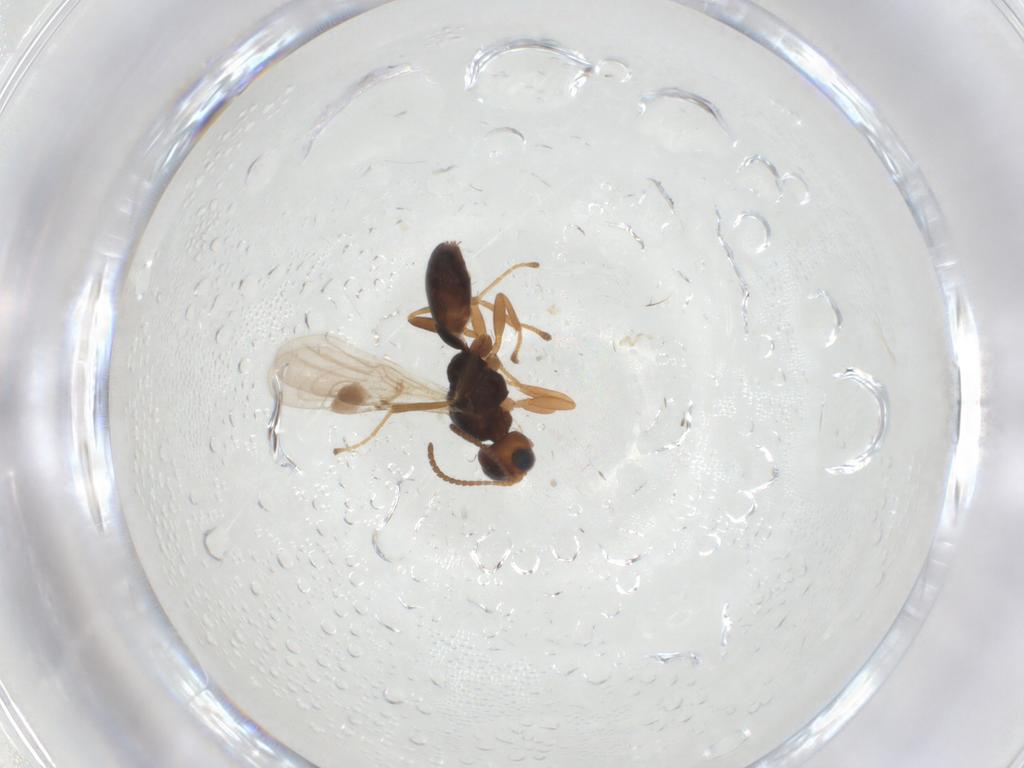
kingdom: Animalia
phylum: Arthropoda
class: Insecta
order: Hymenoptera
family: Braconidae
